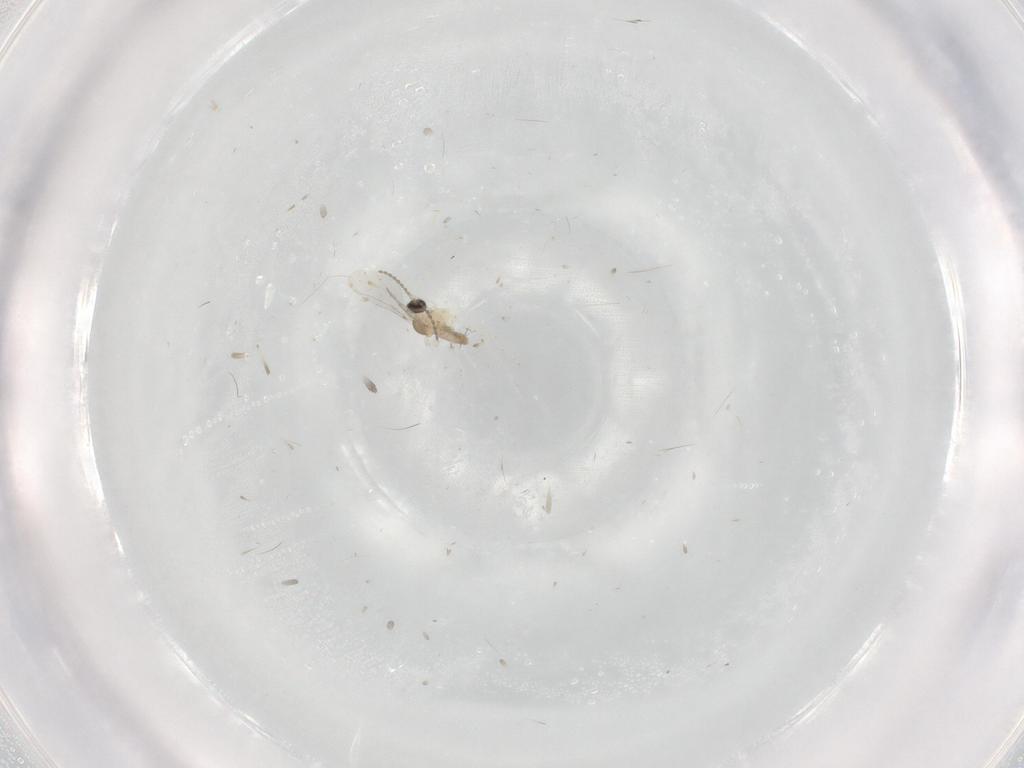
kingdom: Animalia
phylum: Arthropoda
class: Insecta
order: Diptera
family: Cecidomyiidae
